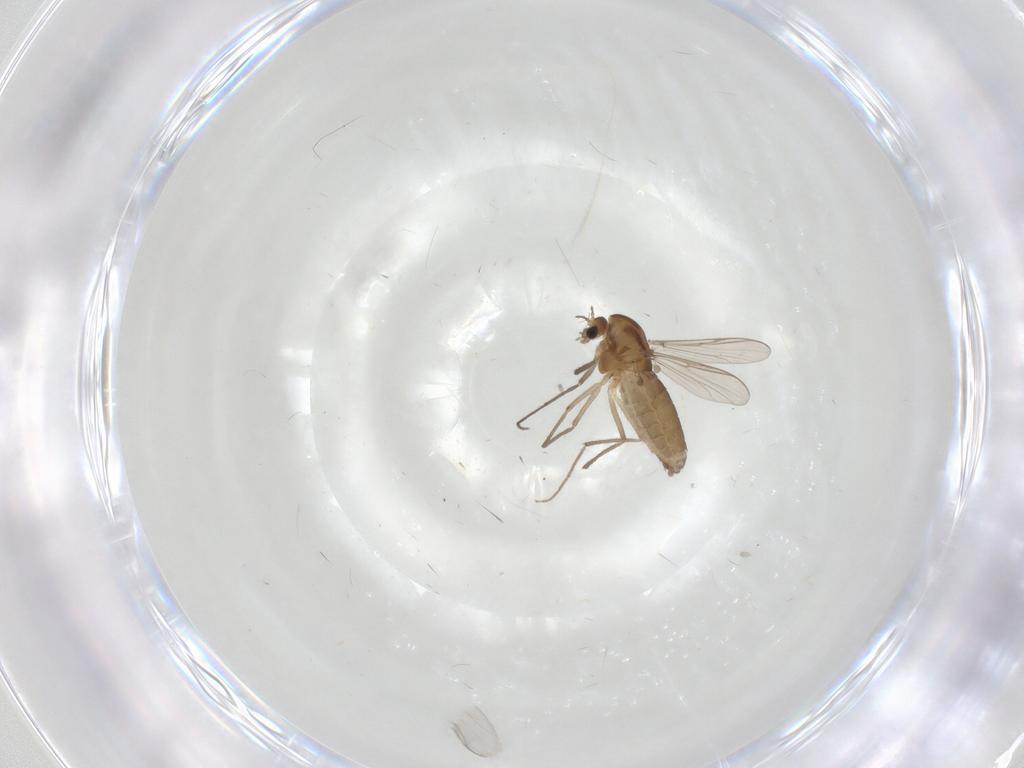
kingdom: Animalia
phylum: Arthropoda
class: Insecta
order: Diptera
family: Chironomidae
